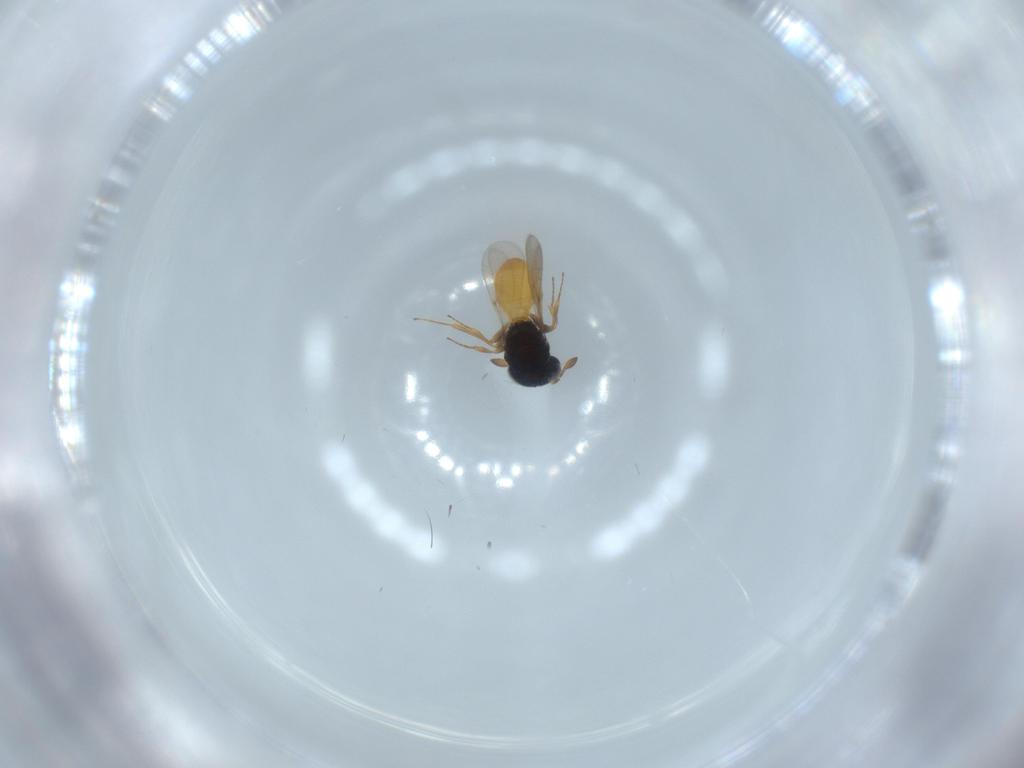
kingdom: Animalia
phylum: Arthropoda
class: Insecta
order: Hymenoptera
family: Scelionidae
